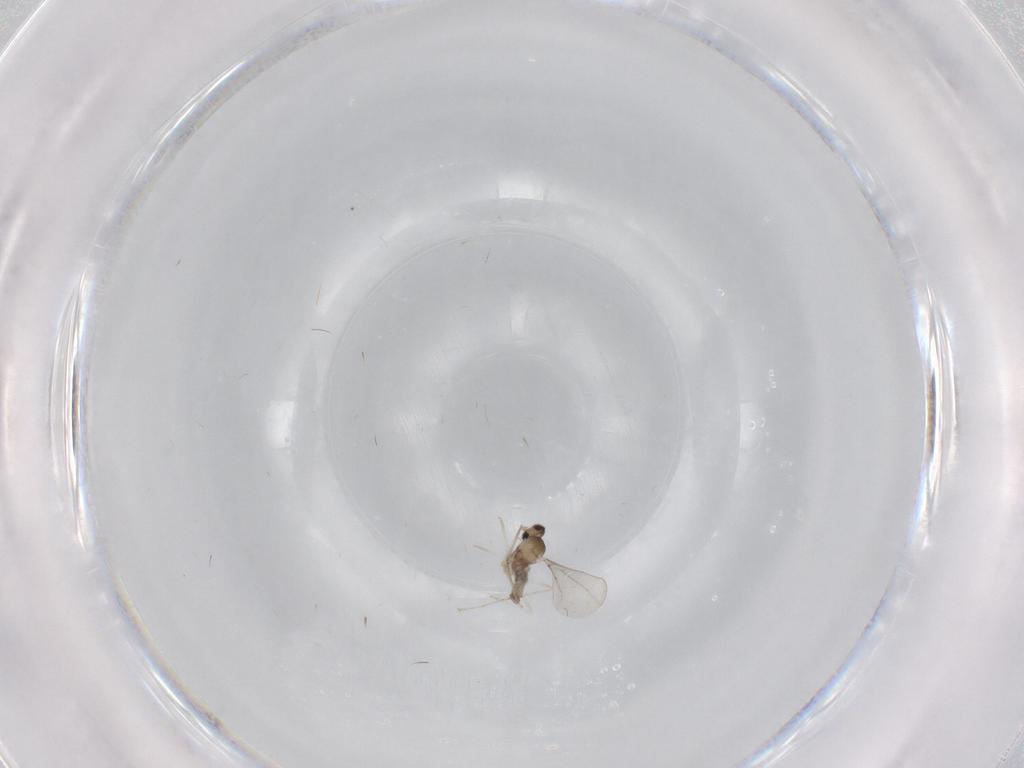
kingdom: Animalia
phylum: Arthropoda
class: Insecta
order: Diptera
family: Cecidomyiidae
